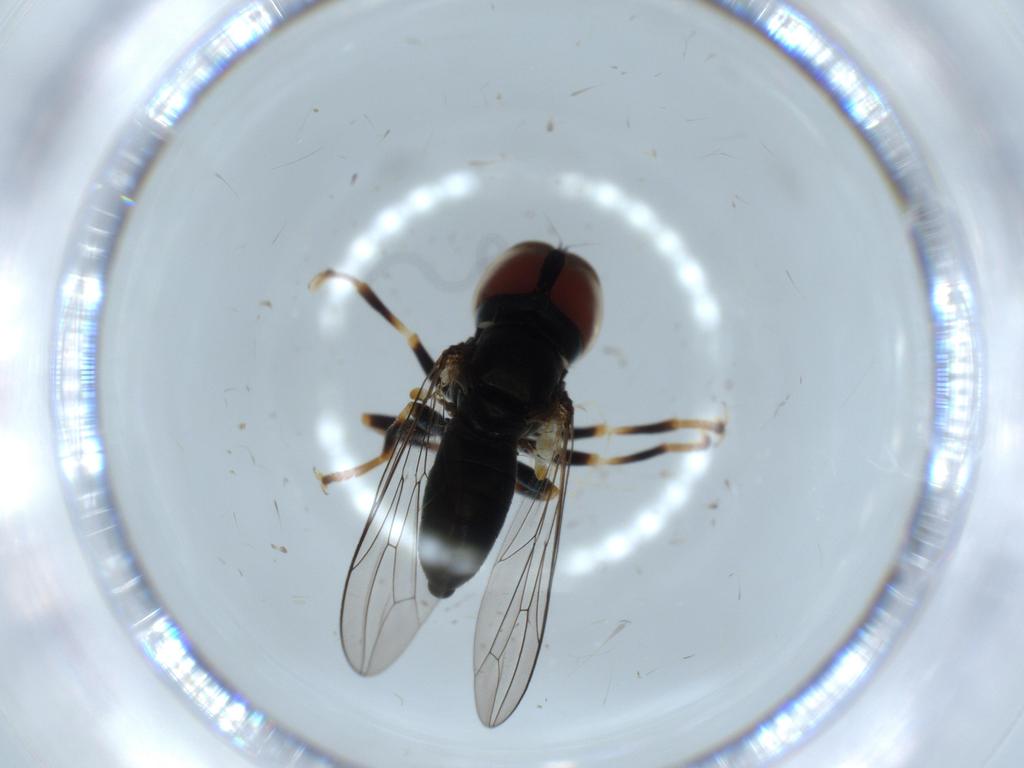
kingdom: Animalia
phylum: Arthropoda
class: Insecta
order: Diptera
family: Pipunculidae
